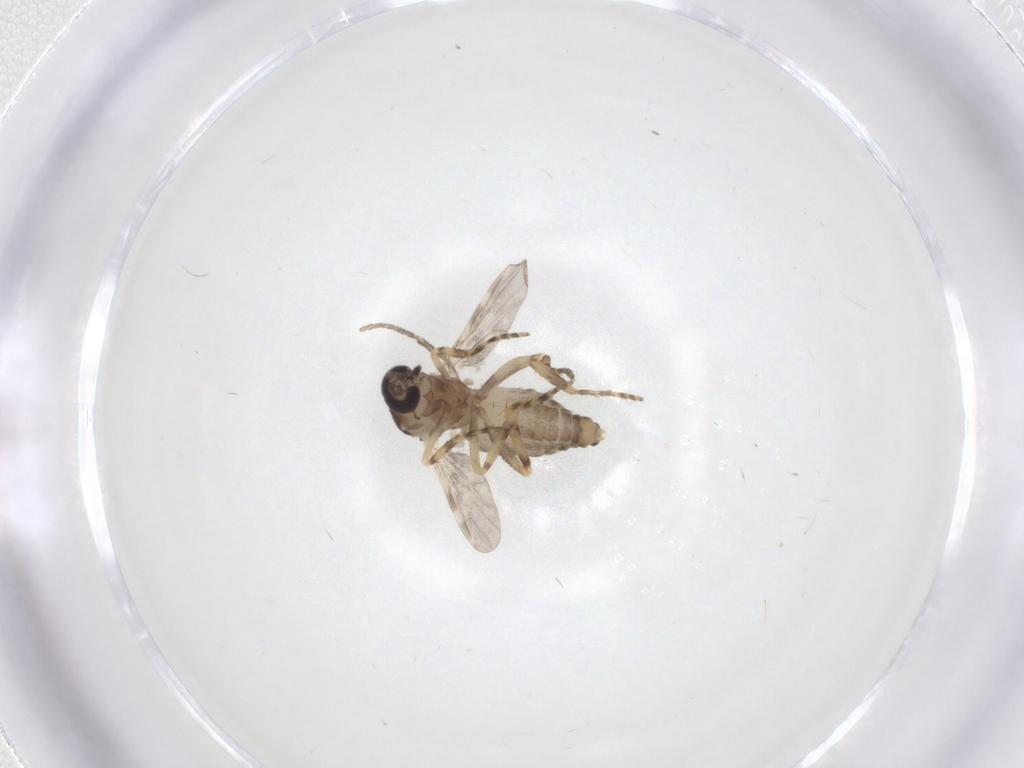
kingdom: Animalia
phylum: Arthropoda
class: Insecta
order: Diptera
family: Ceratopogonidae
